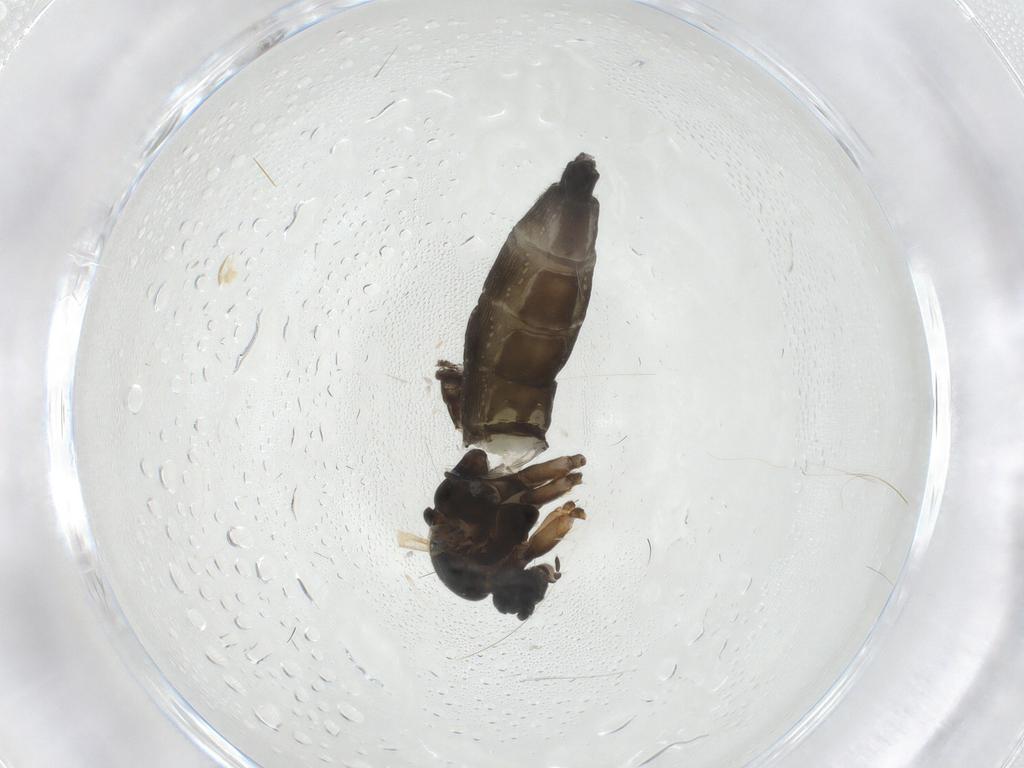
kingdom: Animalia
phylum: Arthropoda
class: Insecta
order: Diptera
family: Sciaridae
